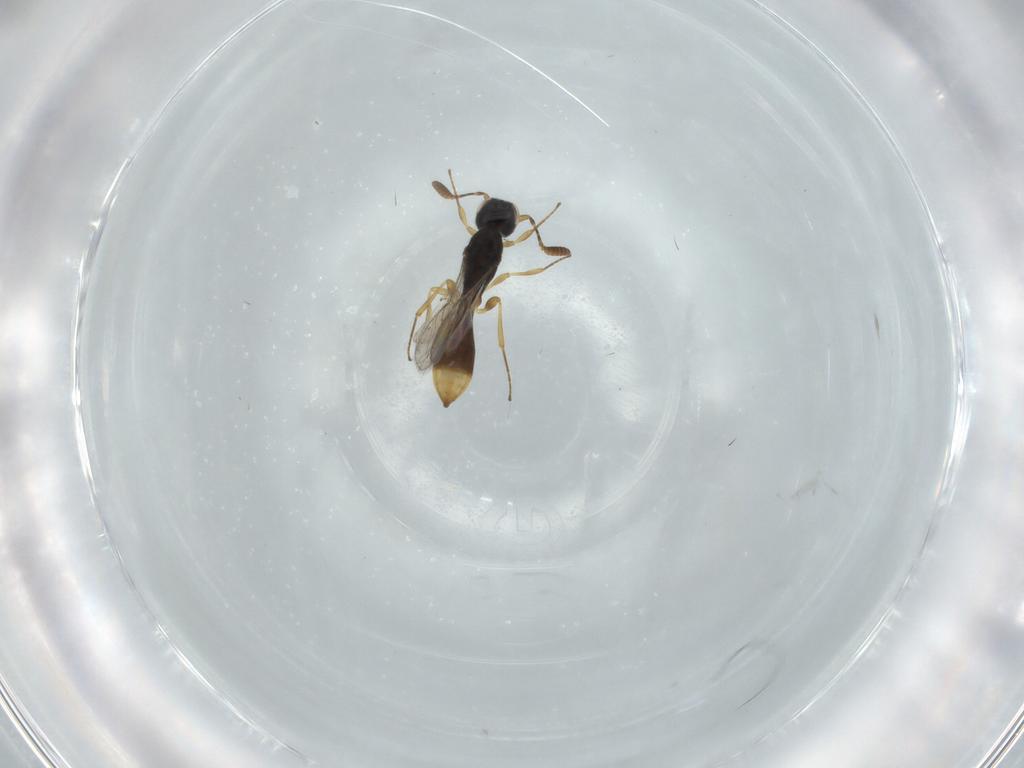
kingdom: Animalia
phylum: Arthropoda
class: Insecta
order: Hymenoptera
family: Scelionidae
